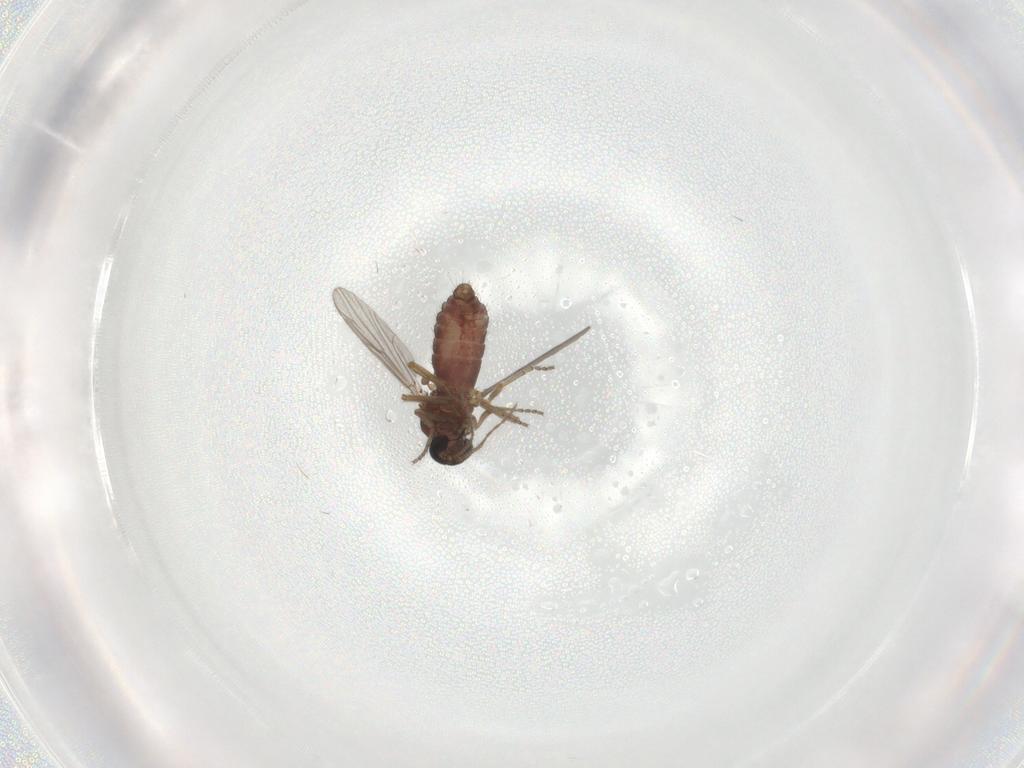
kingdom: Animalia
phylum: Arthropoda
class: Insecta
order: Diptera
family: Ceratopogonidae
